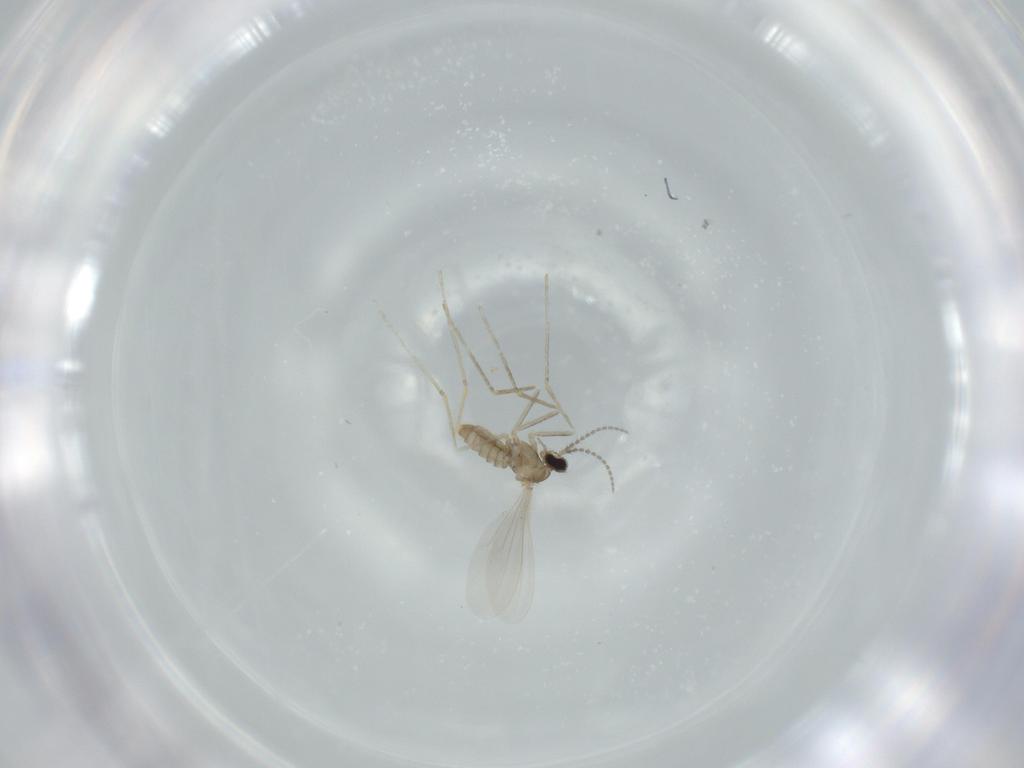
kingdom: Animalia
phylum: Arthropoda
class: Insecta
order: Diptera
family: Cecidomyiidae
